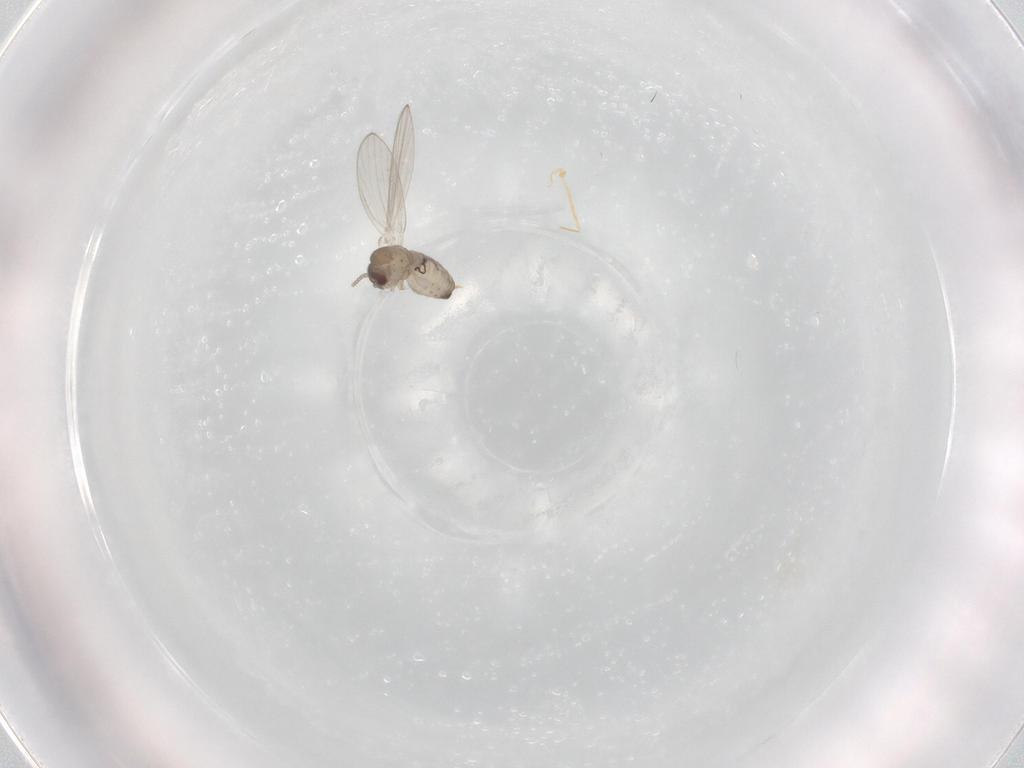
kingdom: Animalia
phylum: Arthropoda
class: Insecta
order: Diptera
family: Psychodidae
